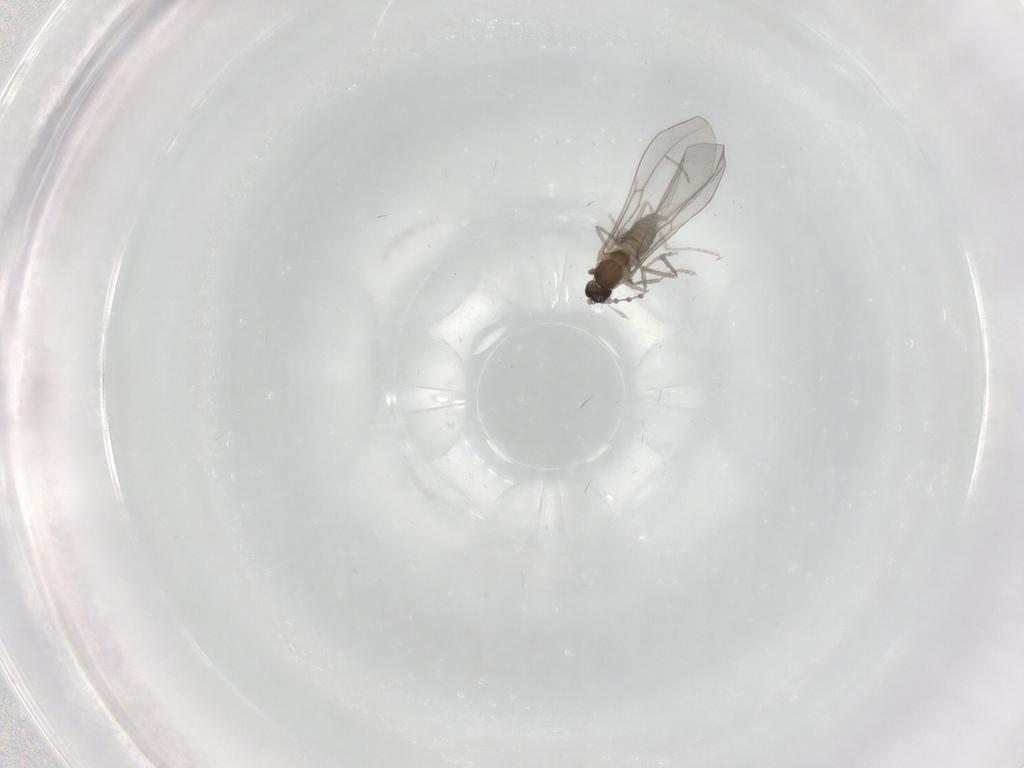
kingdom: Animalia
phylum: Arthropoda
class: Insecta
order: Diptera
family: Cecidomyiidae
